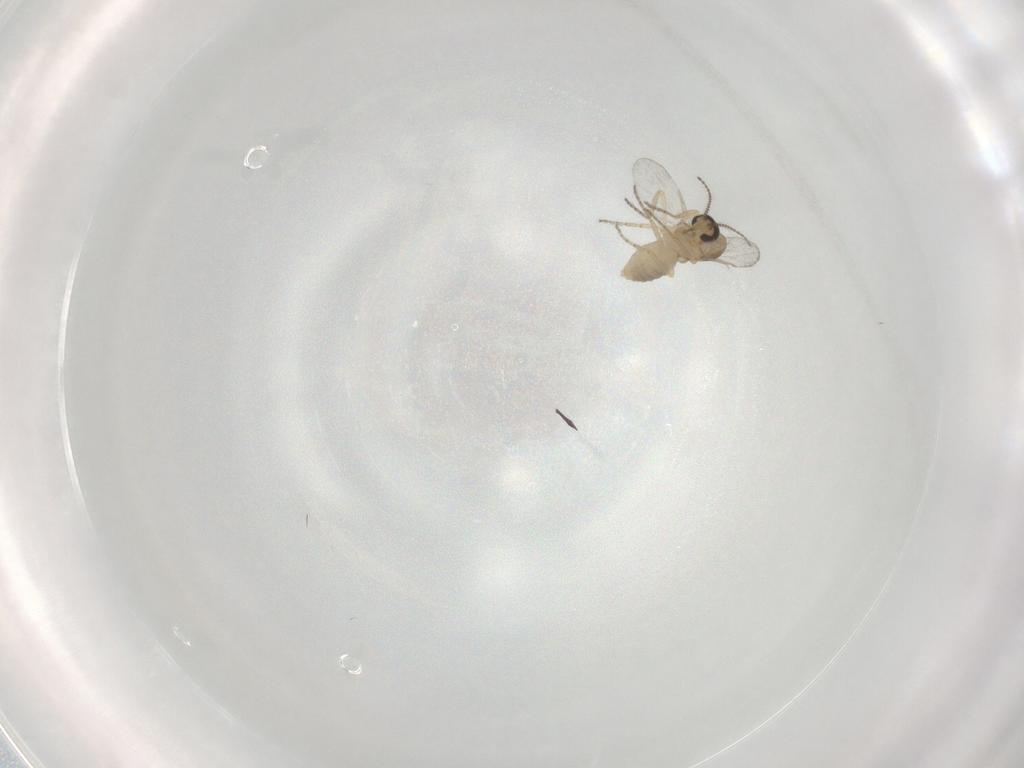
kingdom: Animalia
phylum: Arthropoda
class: Insecta
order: Diptera
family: Ceratopogonidae
